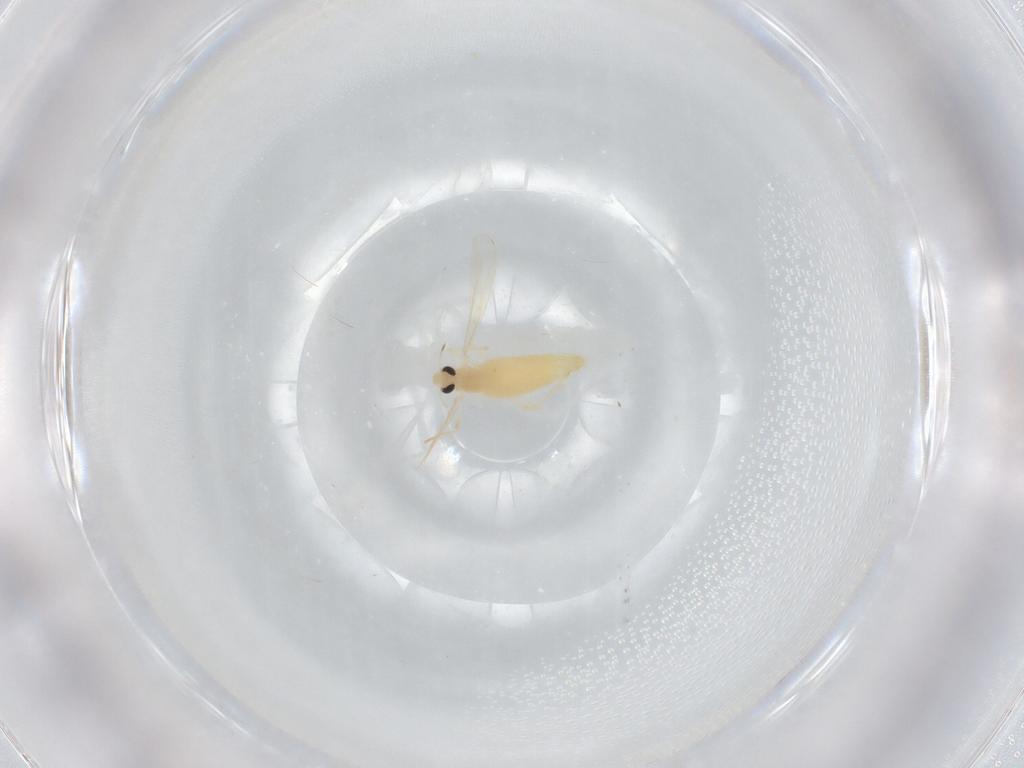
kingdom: Animalia
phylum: Arthropoda
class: Insecta
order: Diptera
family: Chironomidae
